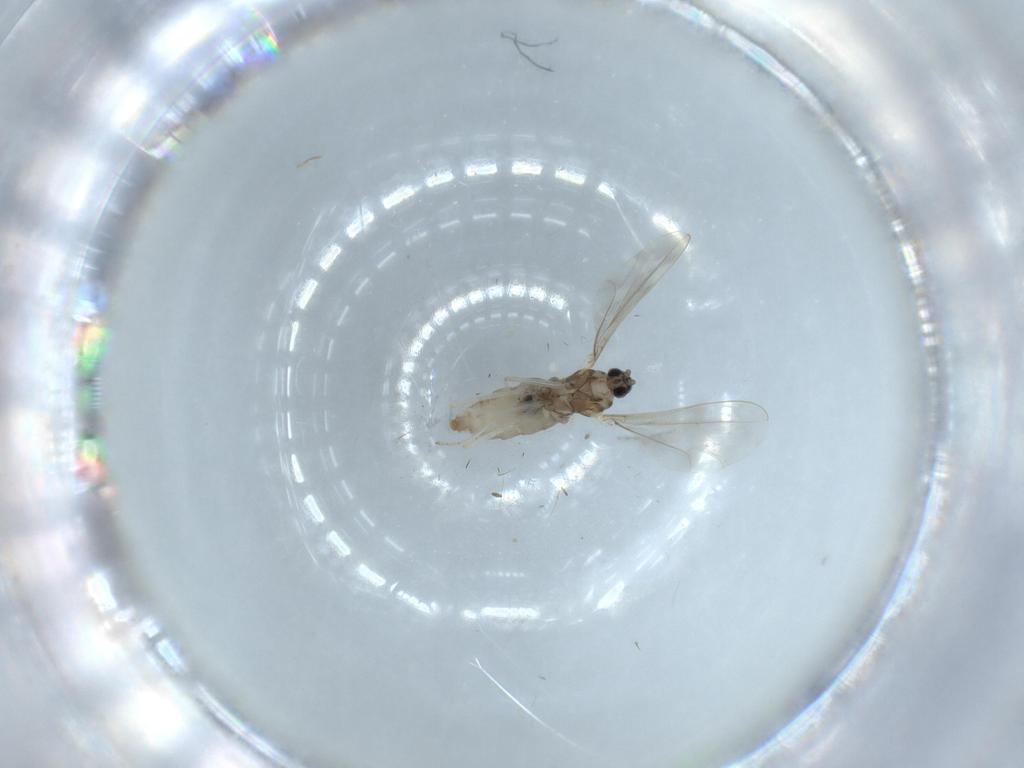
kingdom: Animalia
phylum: Arthropoda
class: Insecta
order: Diptera
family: Cecidomyiidae
